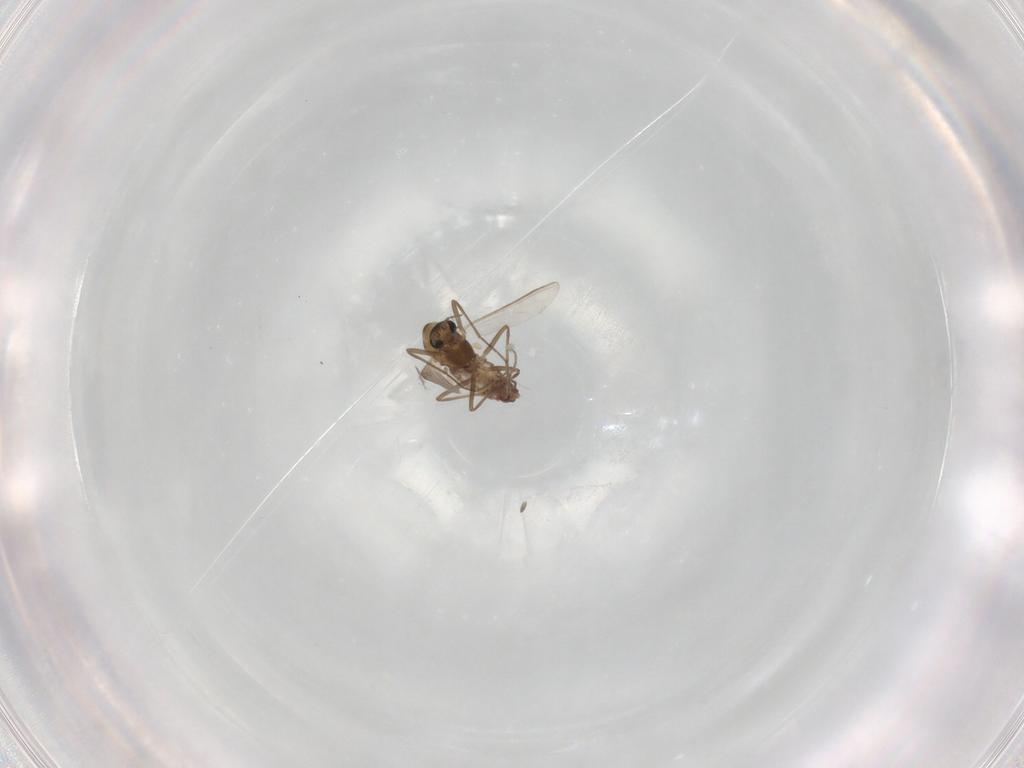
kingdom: Animalia
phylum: Arthropoda
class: Insecta
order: Diptera
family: Chironomidae
